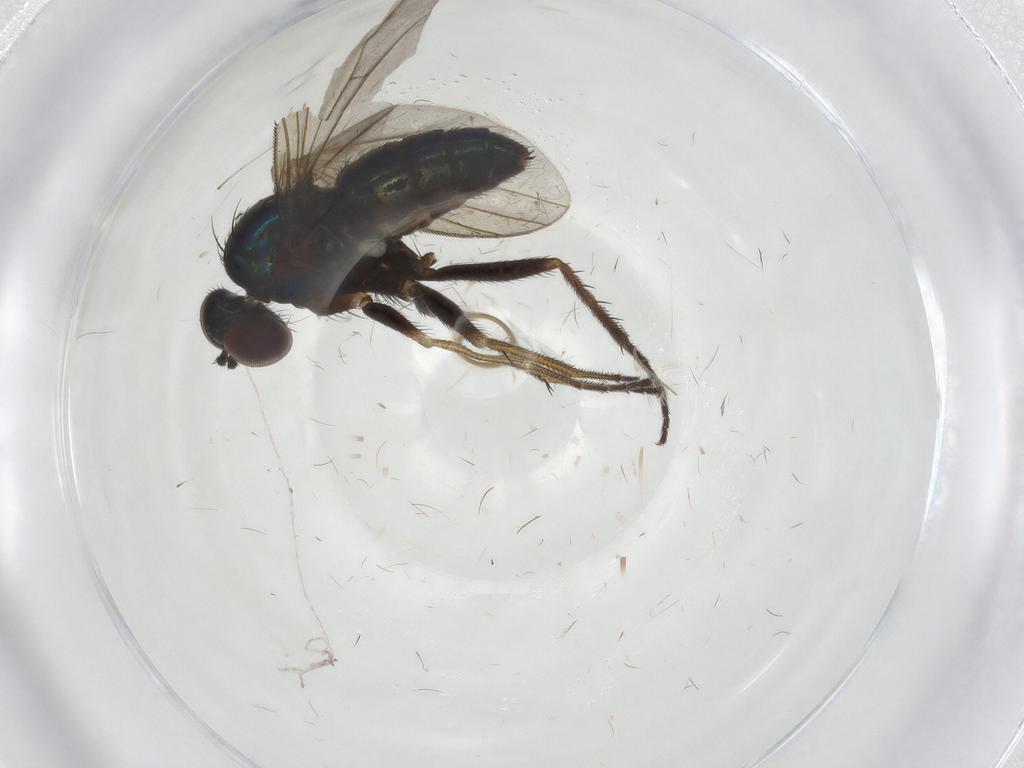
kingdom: Animalia
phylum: Arthropoda
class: Insecta
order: Diptera
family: Dolichopodidae
